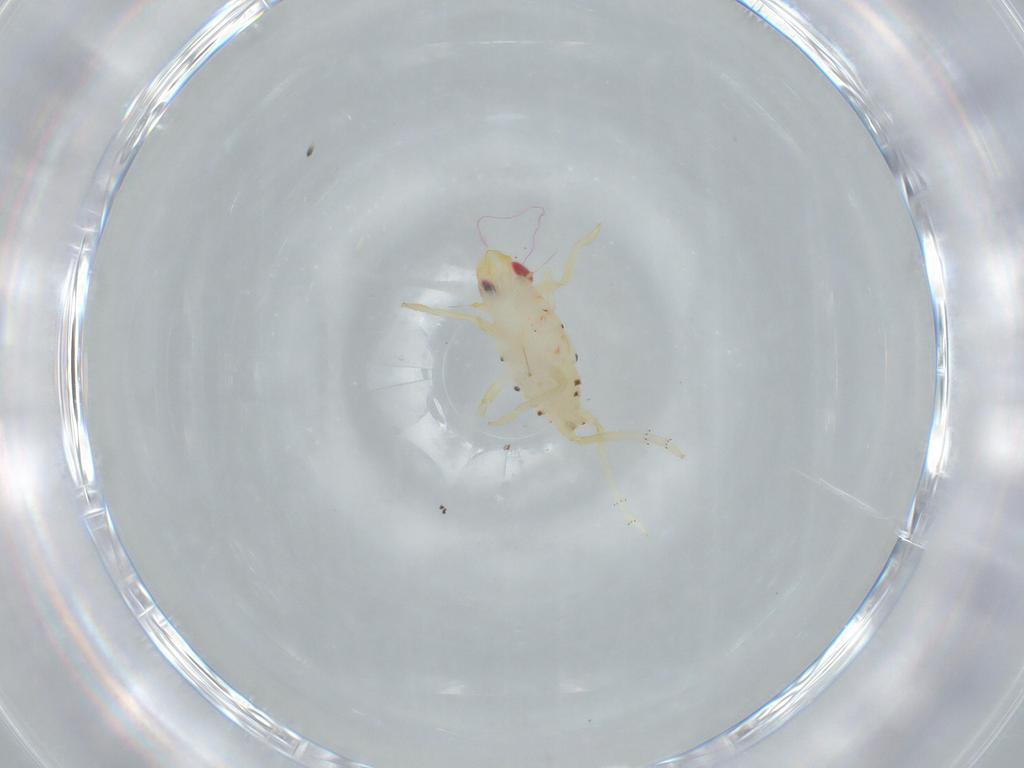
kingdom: Animalia
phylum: Arthropoda
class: Insecta
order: Hemiptera
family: Tropiduchidae
